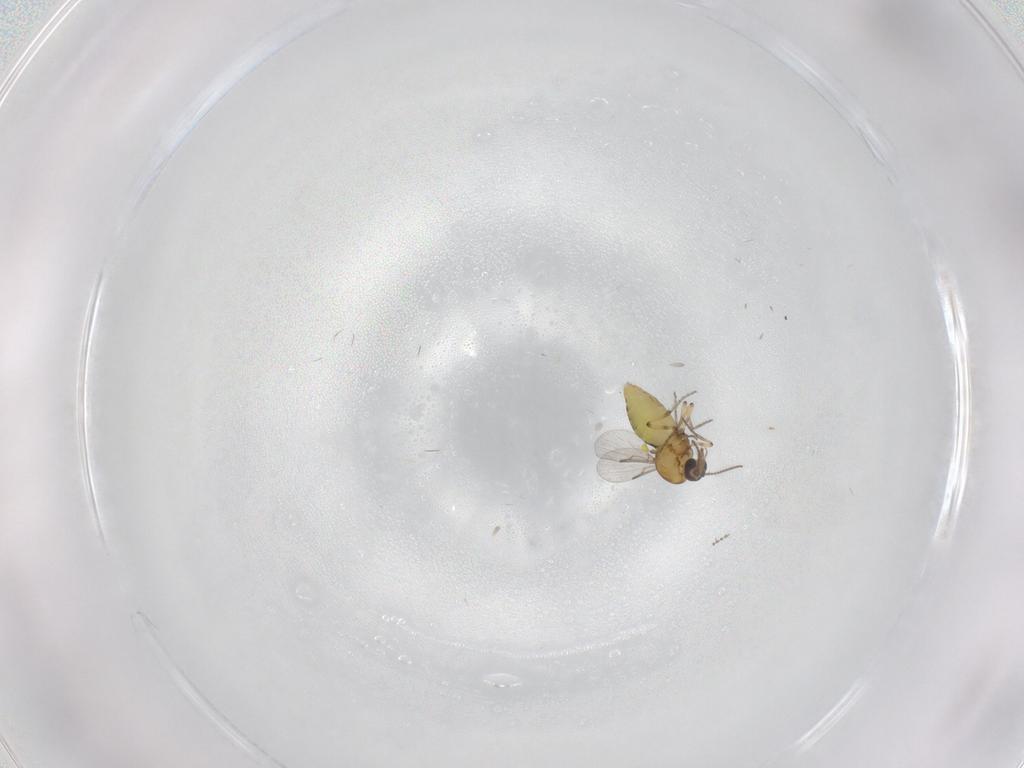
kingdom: Animalia
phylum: Arthropoda
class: Insecta
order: Diptera
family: Ceratopogonidae
